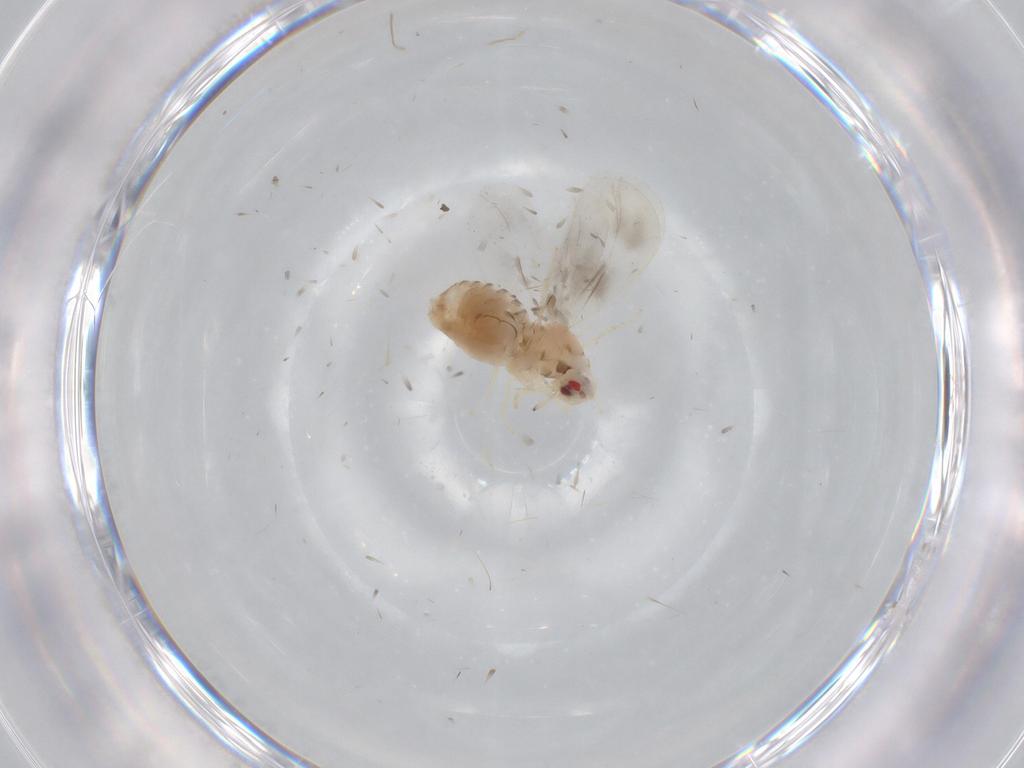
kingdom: Animalia
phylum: Arthropoda
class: Insecta
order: Hemiptera
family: Aleyrodidae
